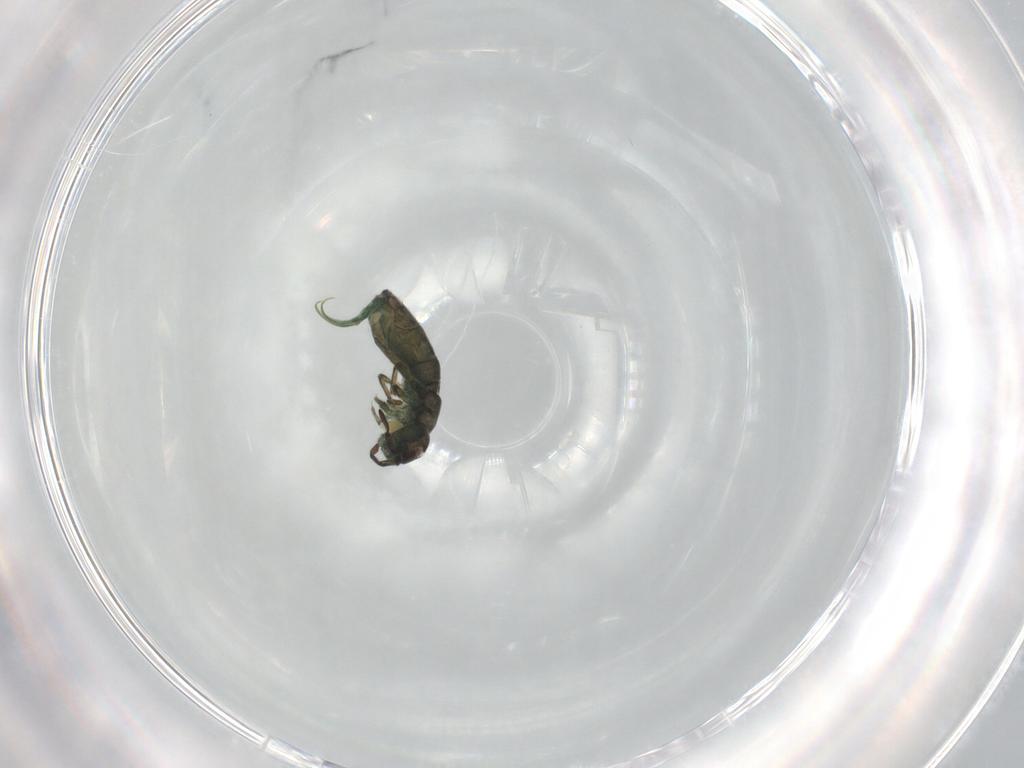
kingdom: Animalia
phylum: Arthropoda
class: Collembola
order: Entomobryomorpha
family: Isotomidae
